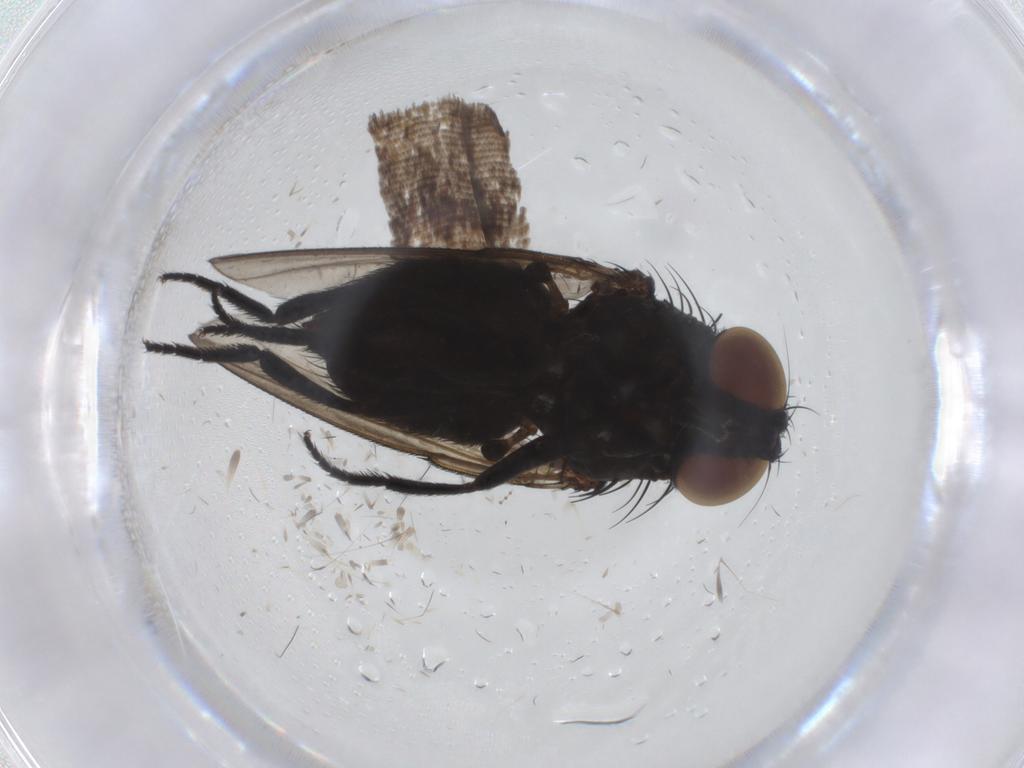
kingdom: Animalia
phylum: Arthropoda
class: Insecta
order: Diptera
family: Milichiidae
